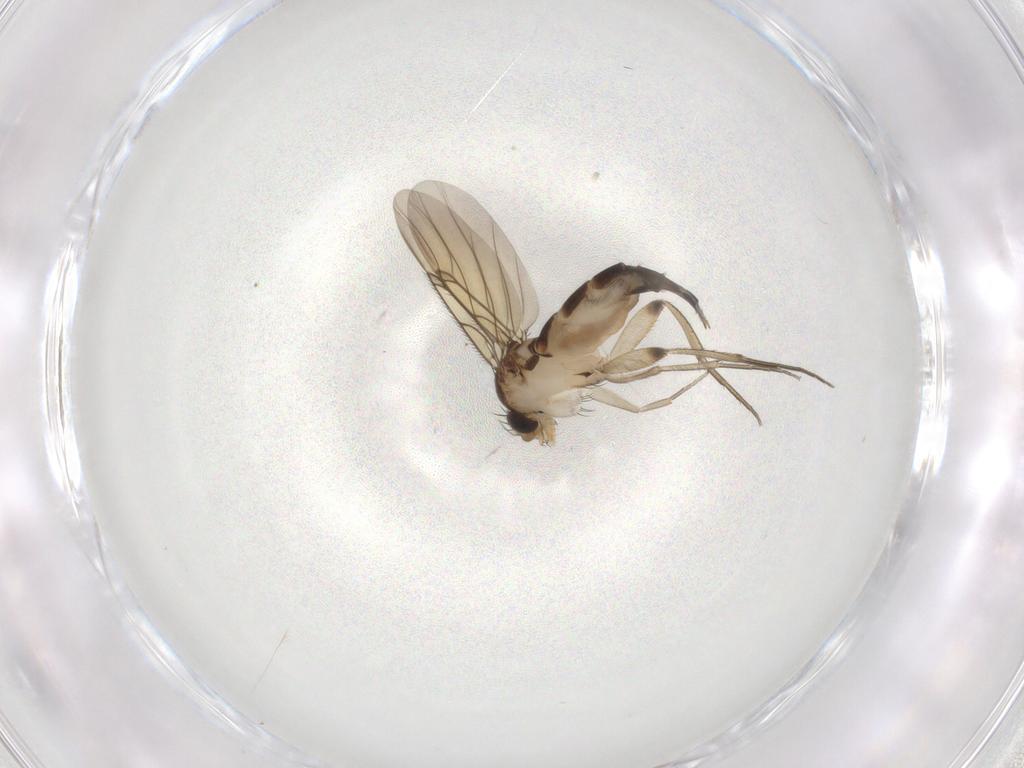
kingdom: Animalia
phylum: Arthropoda
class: Insecta
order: Diptera
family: Phoridae
